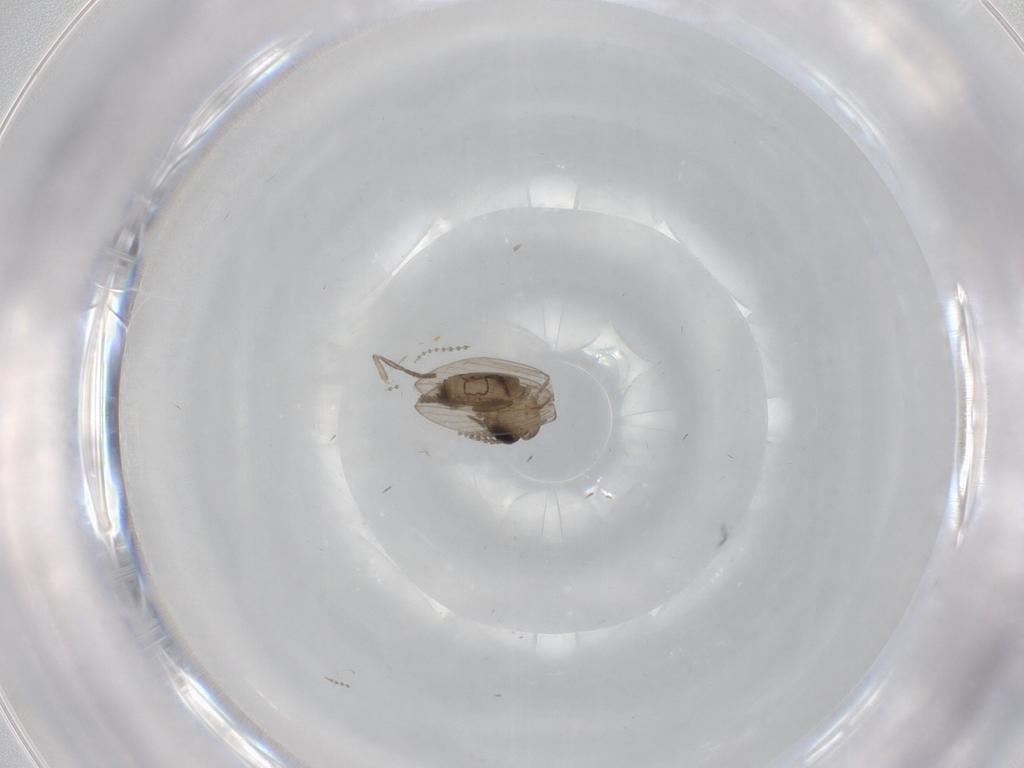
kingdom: Animalia
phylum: Arthropoda
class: Insecta
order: Diptera
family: Psychodidae
